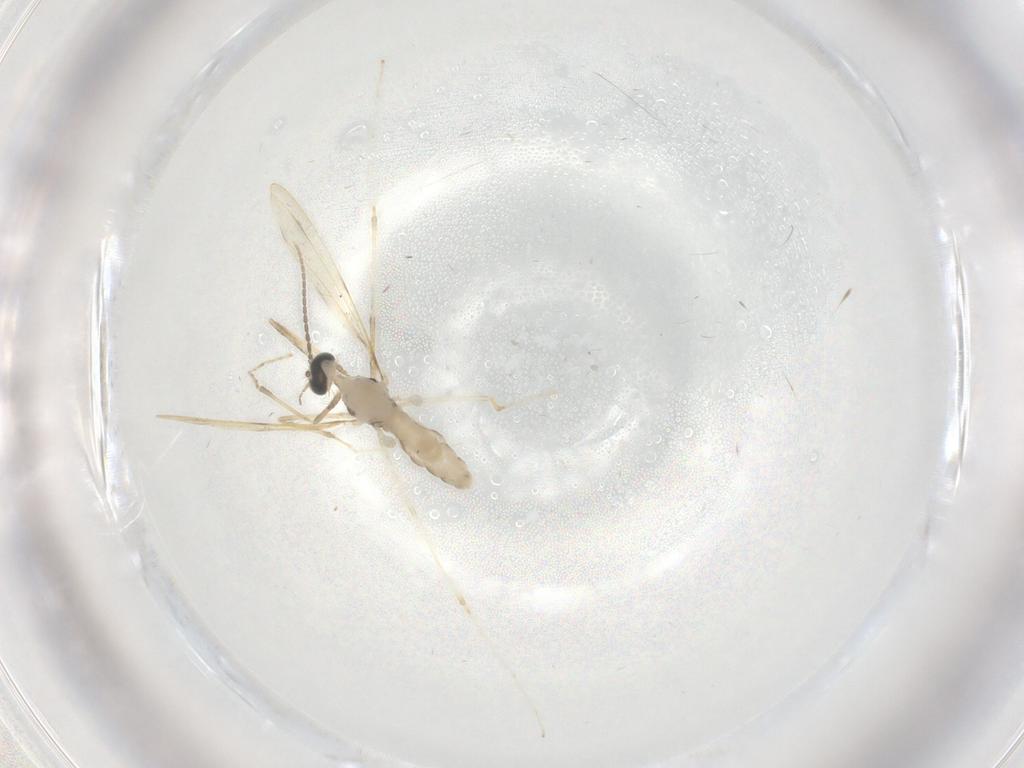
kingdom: Animalia
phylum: Arthropoda
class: Insecta
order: Diptera
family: Cecidomyiidae
